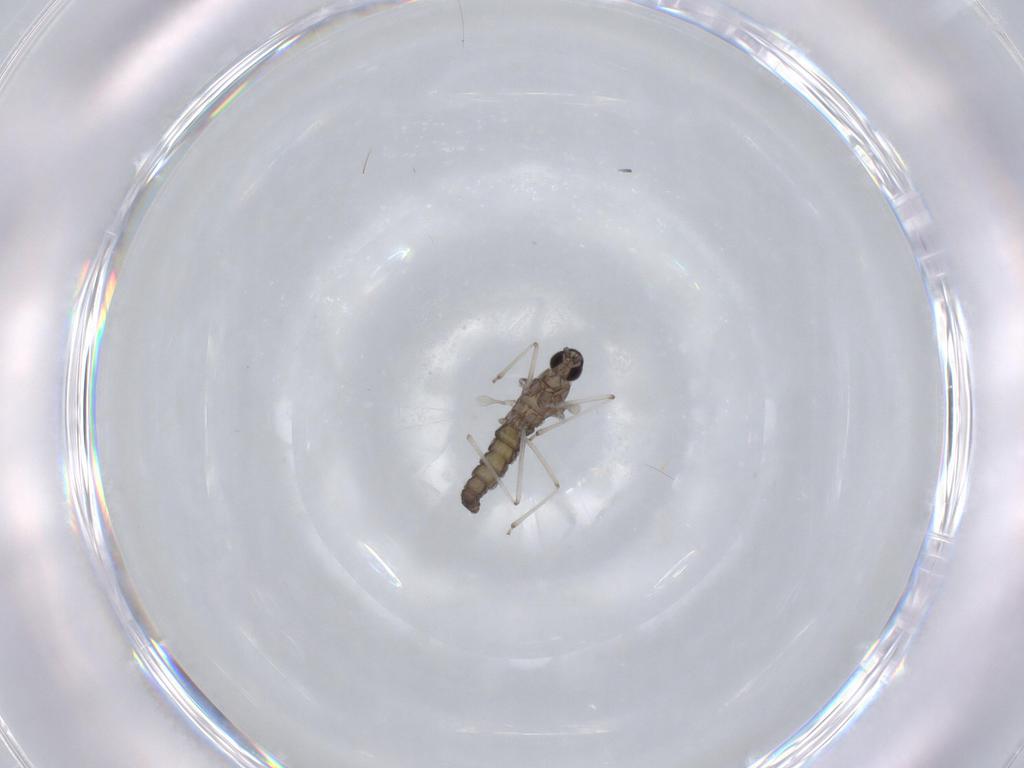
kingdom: Animalia
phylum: Arthropoda
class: Insecta
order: Diptera
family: Cecidomyiidae
